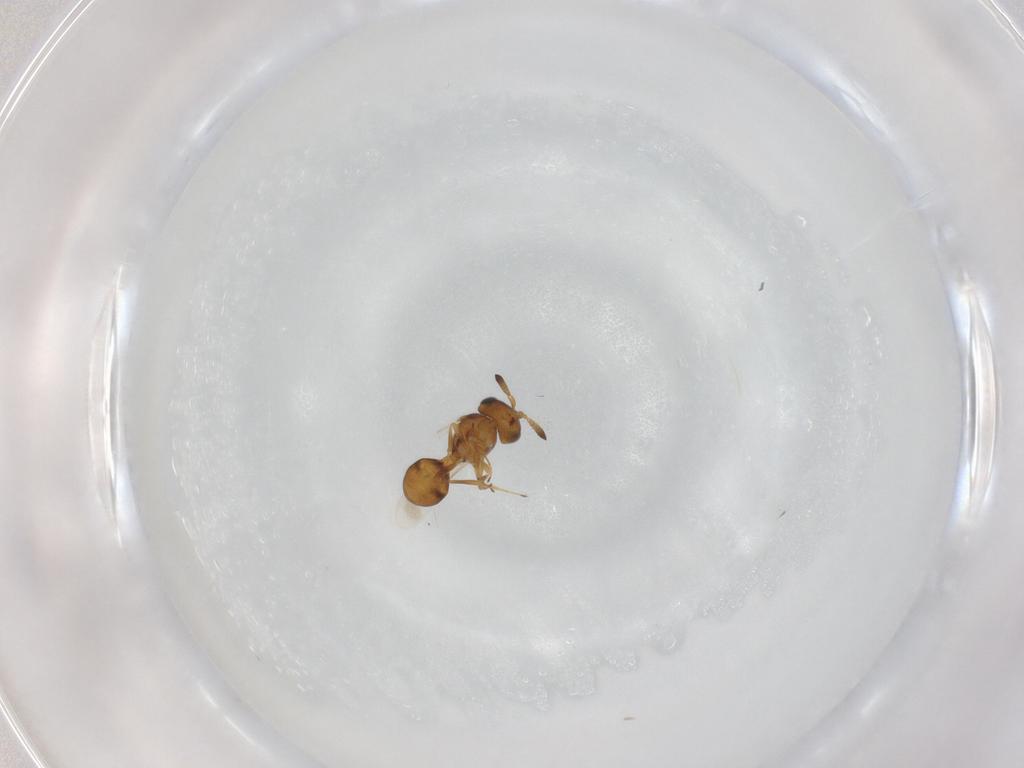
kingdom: Animalia
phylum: Arthropoda
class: Insecta
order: Hymenoptera
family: Scelionidae
